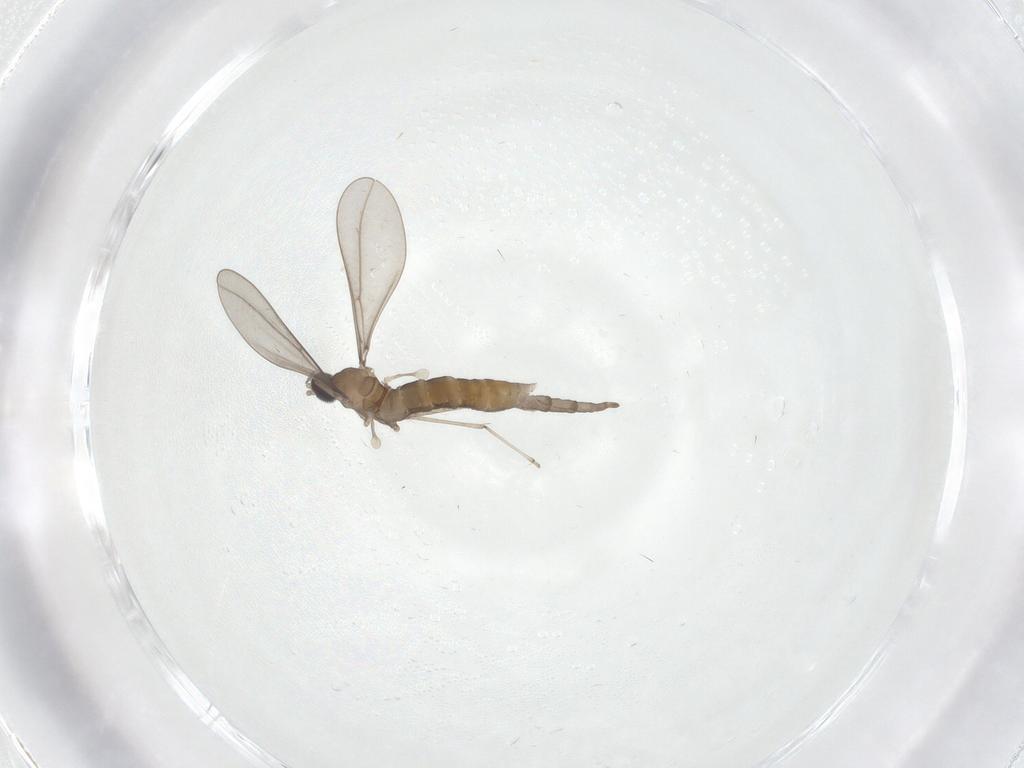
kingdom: Animalia
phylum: Arthropoda
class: Insecta
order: Diptera
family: Cecidomyiidae
